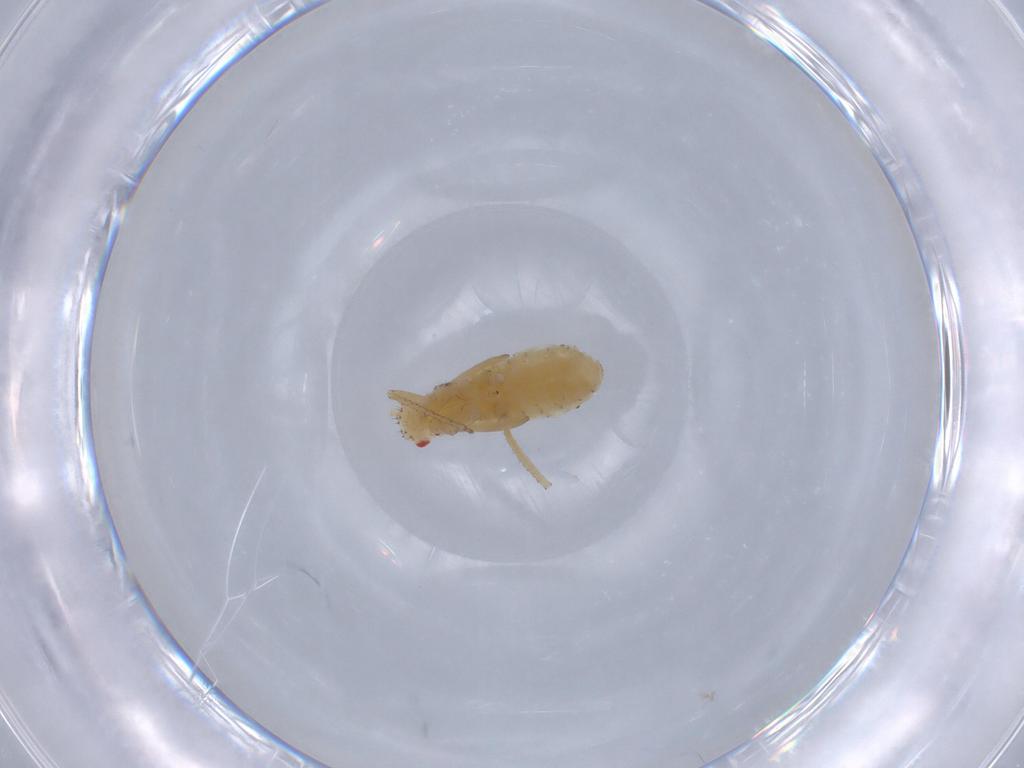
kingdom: Animalia
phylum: Arthropoda
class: Insecta
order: Hemiptera
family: Aphididae
